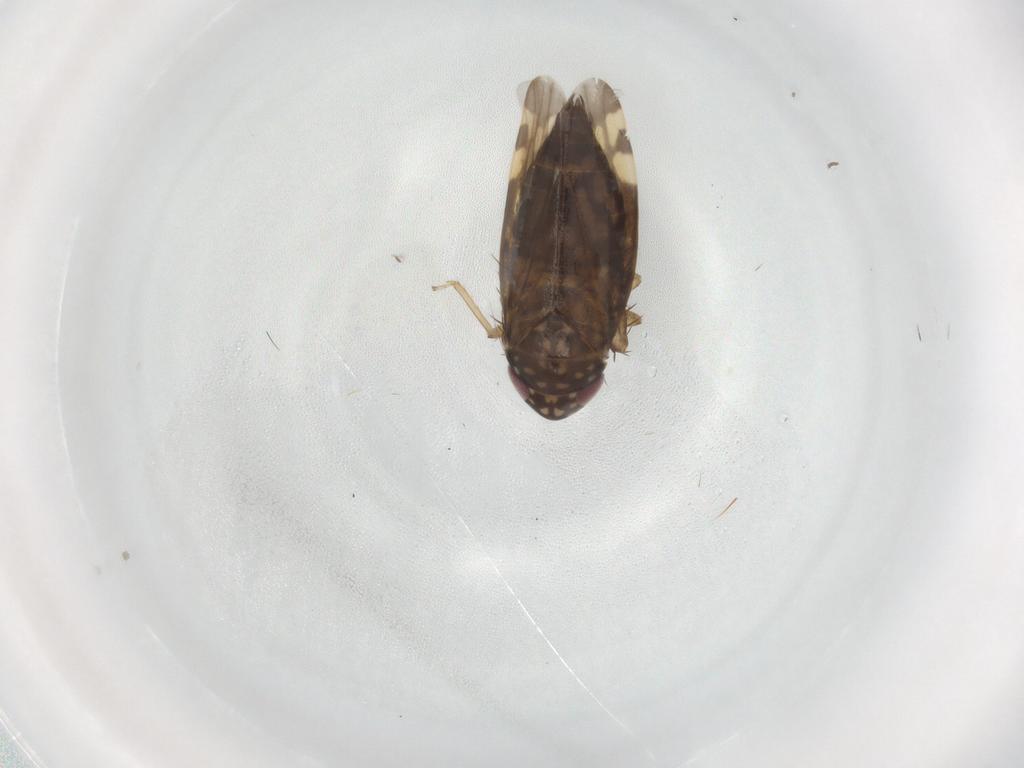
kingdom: Animalia
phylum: Arthropoda
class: Insecta
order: Hemiptera
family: Cicadellidae
